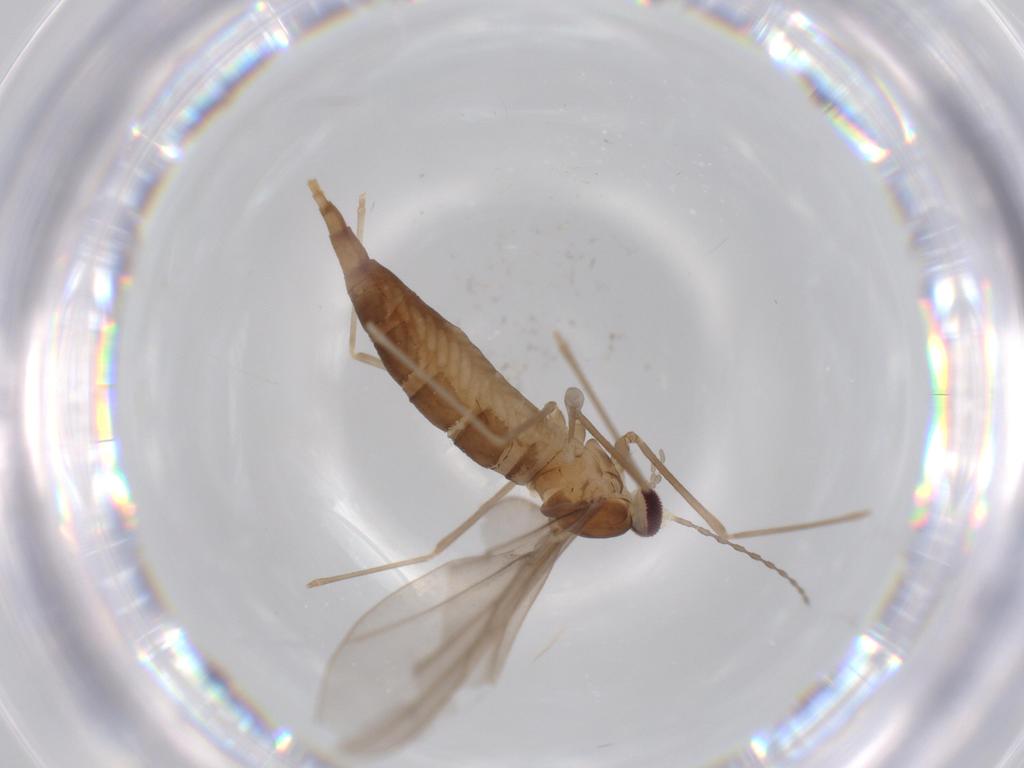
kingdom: Animalia
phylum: Arthropoda
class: Insecta
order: Diptera
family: Cecidomyiidae
